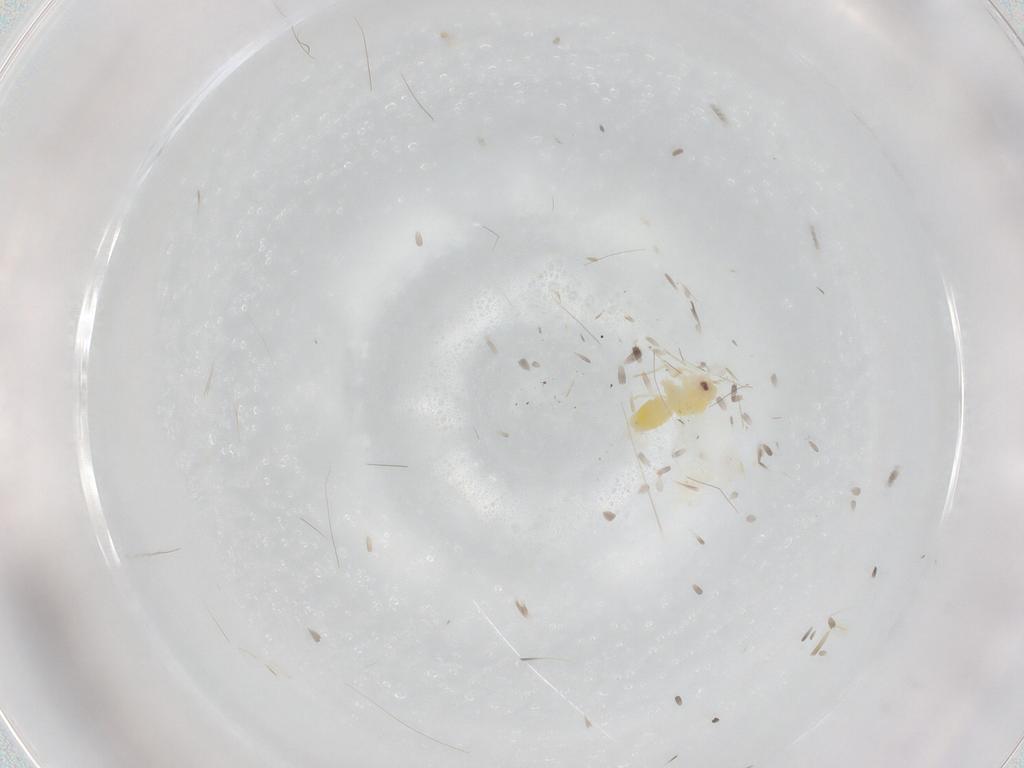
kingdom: Animalia
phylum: Arthropoda
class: Insecta
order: Hemiptera
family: Aleyrodidae
